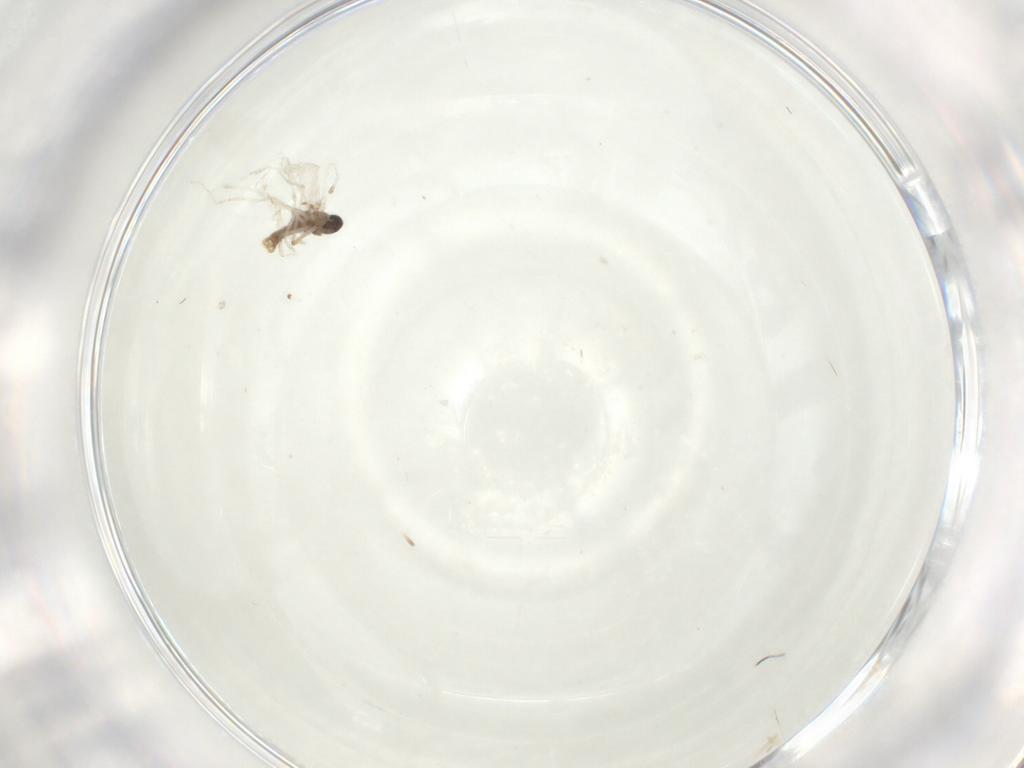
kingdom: Animalia
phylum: Arthropoda
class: Insecta
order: Diptera
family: Cecidomyiidae
